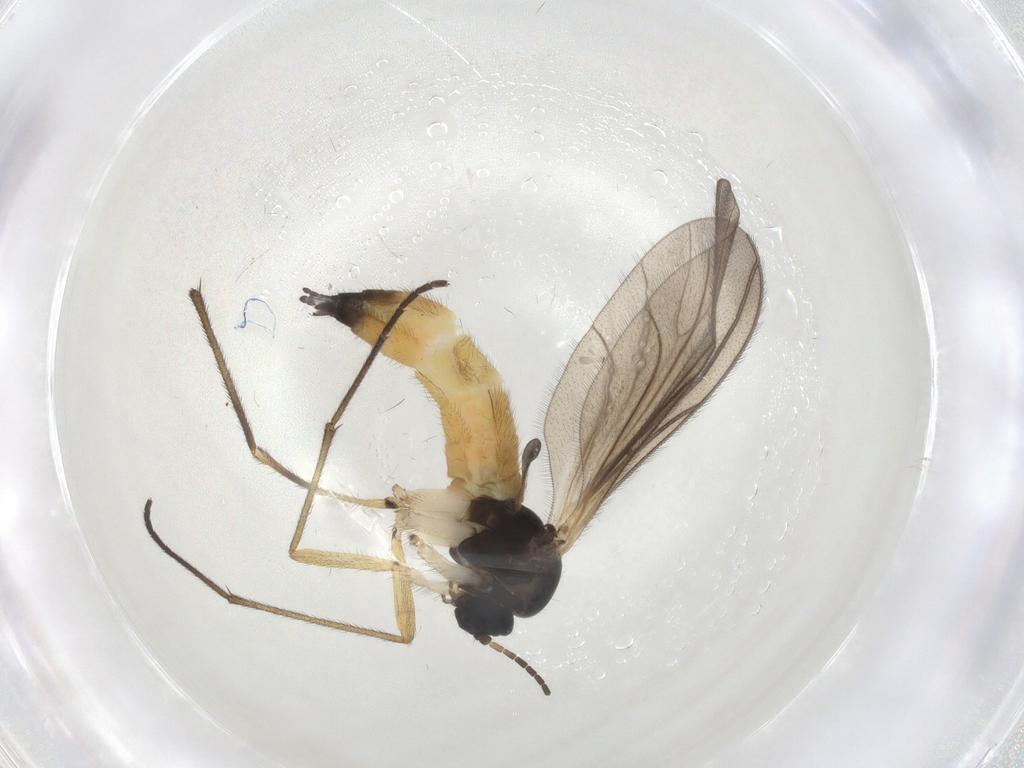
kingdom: Animalia
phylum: Arthropoda
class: Insecta
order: Diptera
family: Sciaridae
